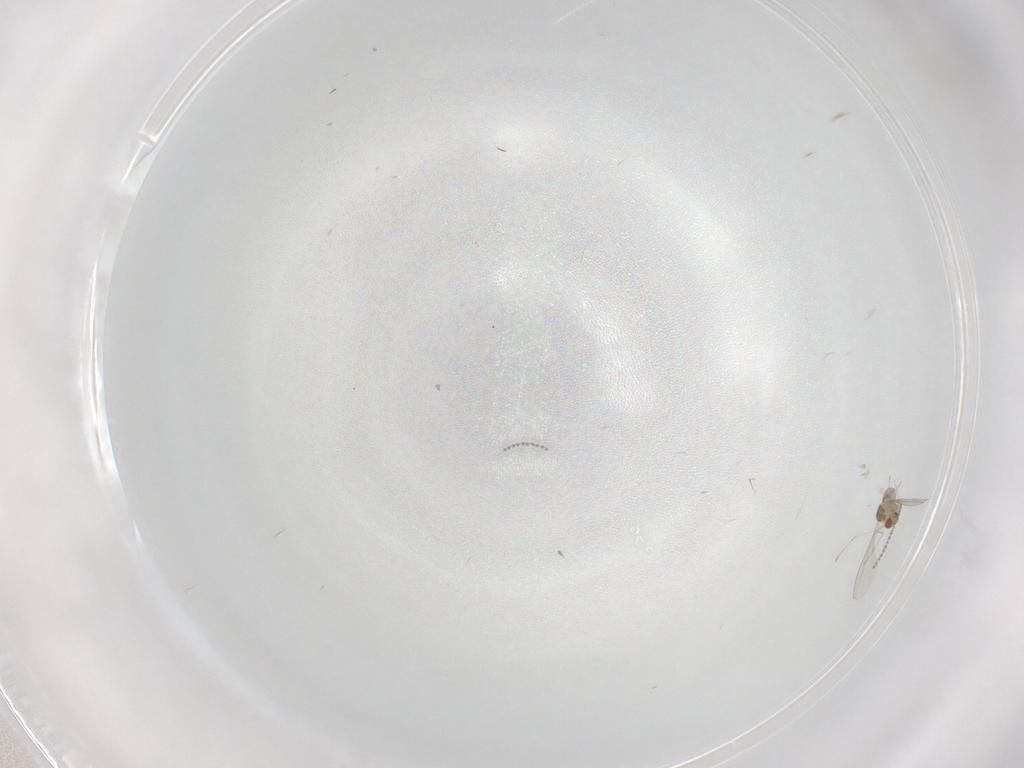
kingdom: Animalia
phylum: Arthropoda
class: Insecta
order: Diptera
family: Cecidomyiidae
